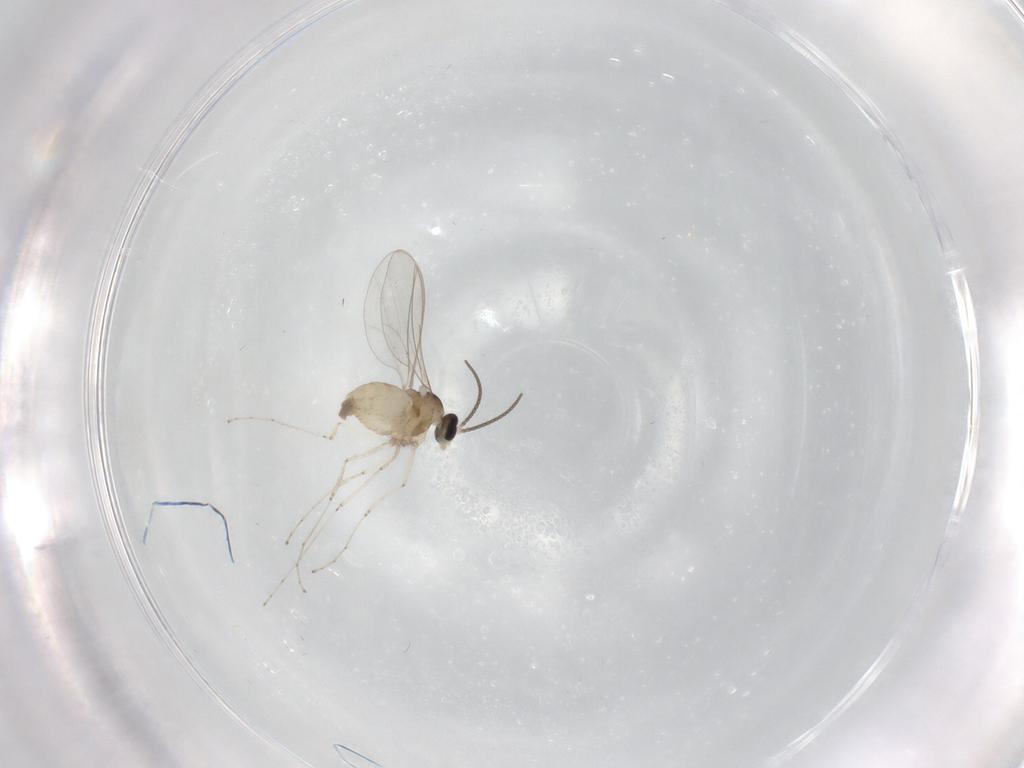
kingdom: Animalia
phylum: Arthropoda
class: Insecta
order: Diptera
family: Cecidomyiidae
